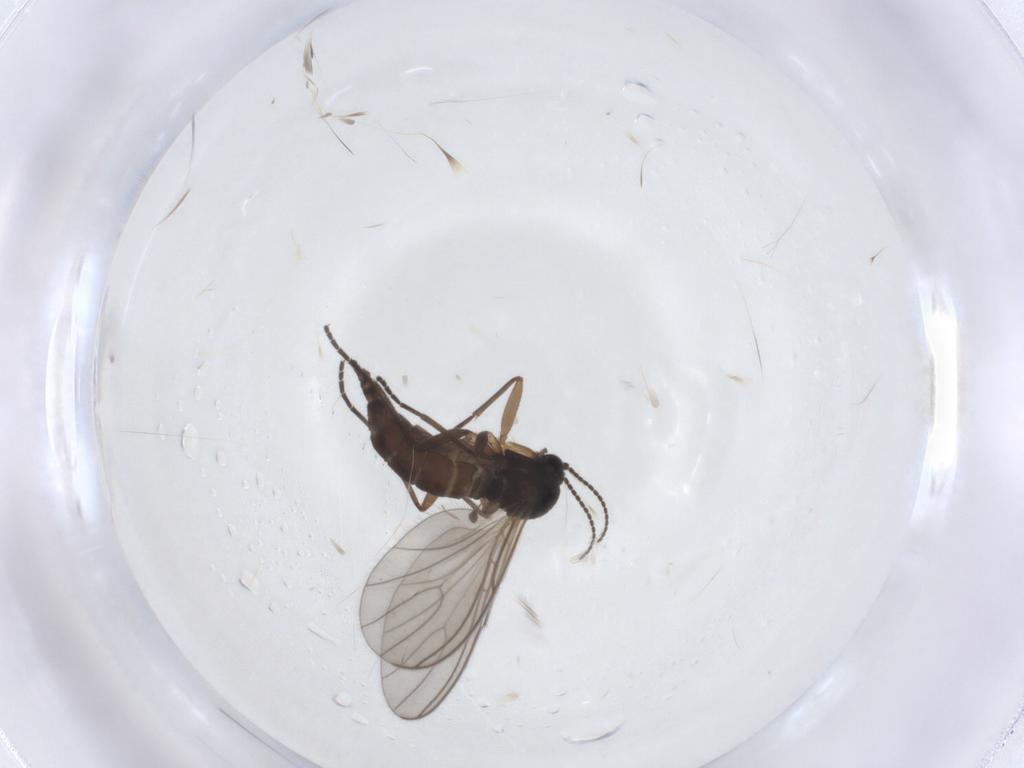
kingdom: Animalia
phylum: Arthropoda
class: Insecta
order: Diptera
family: Sciaridae
